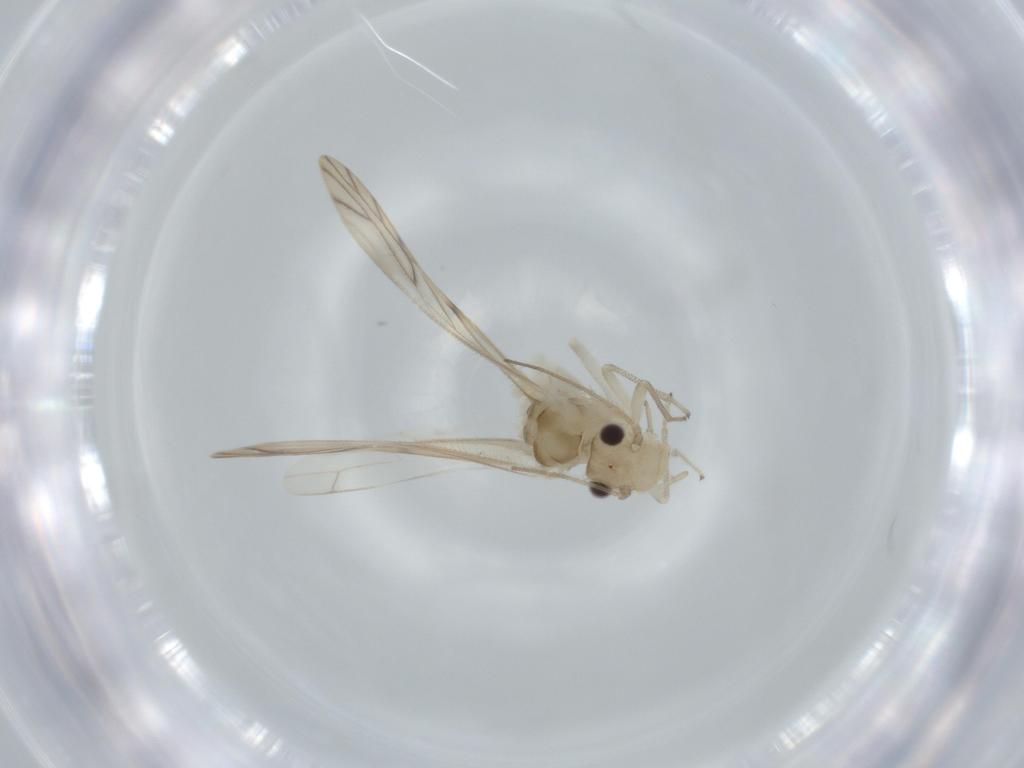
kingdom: Animalia
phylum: Arthropoda
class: Insecta
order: Psocodea
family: Caeciliusidae
